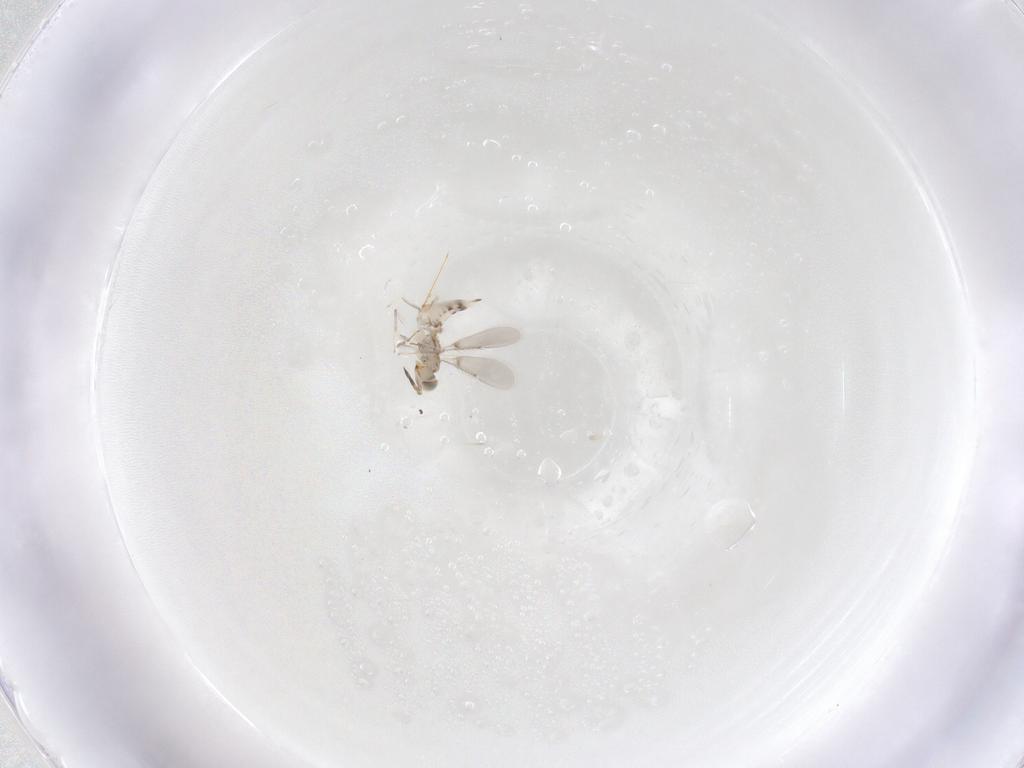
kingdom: Animalia
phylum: Arthropoda
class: Insecta
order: Hymenoptera
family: Aphelinidae
